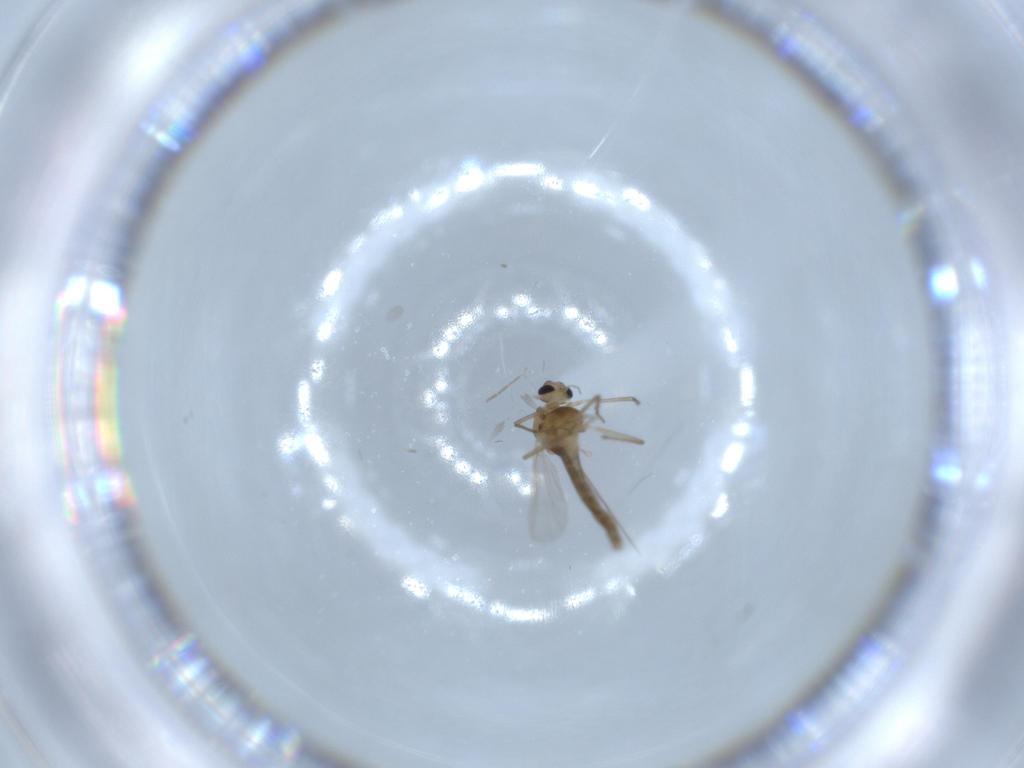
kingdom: Animalia
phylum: Arthropoda
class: Insecta
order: Diptera
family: Chironomidae
